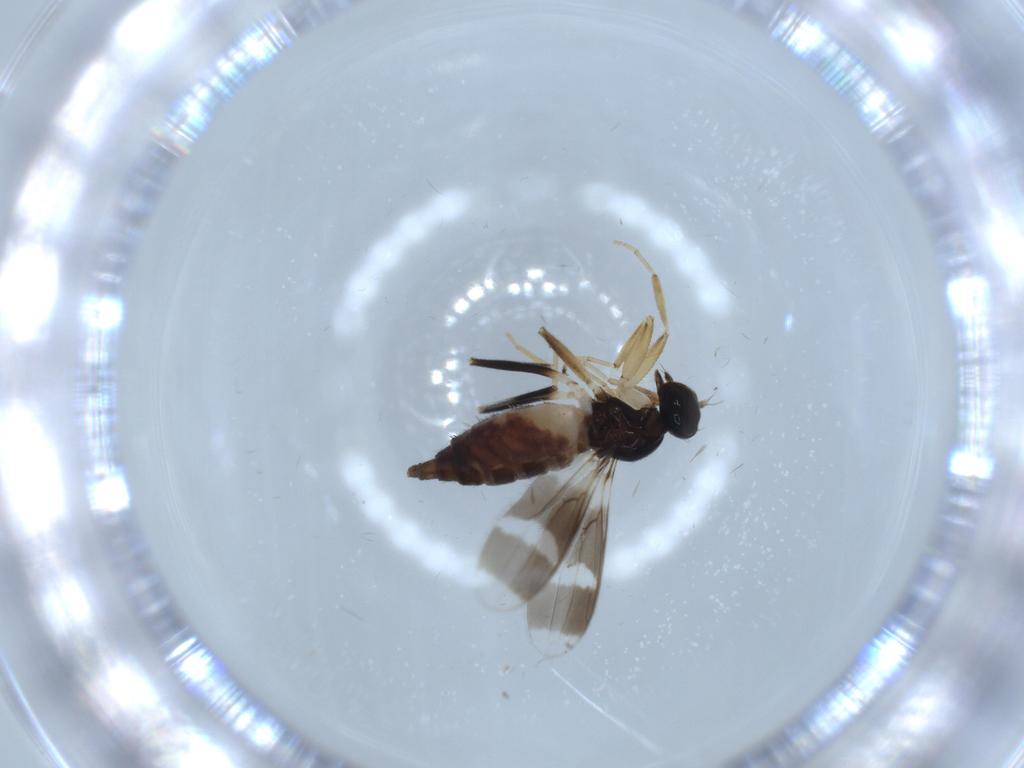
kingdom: Animalia
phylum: Arthropoda
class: Insecta
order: Diptera
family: Hybotidae
